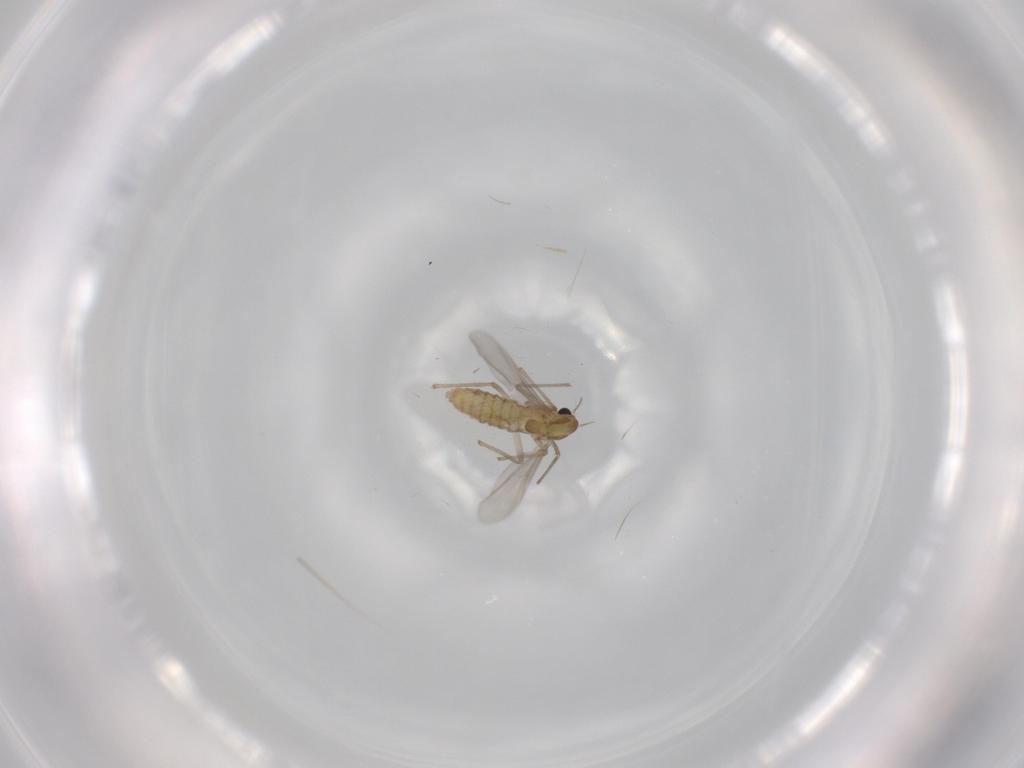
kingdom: Animalia
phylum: Arthropoda
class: Insecta
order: Diptera
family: Chironomidae
